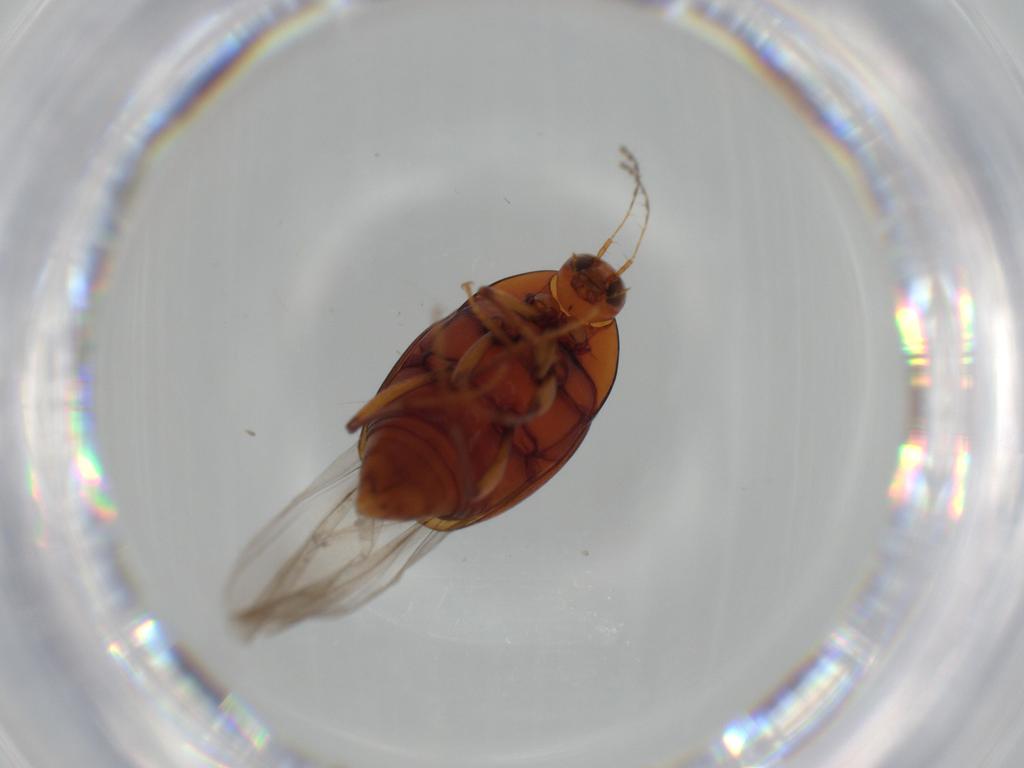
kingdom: Animalia
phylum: Arthropoda
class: Insecta
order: Coleoptera
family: Staphylinidae
